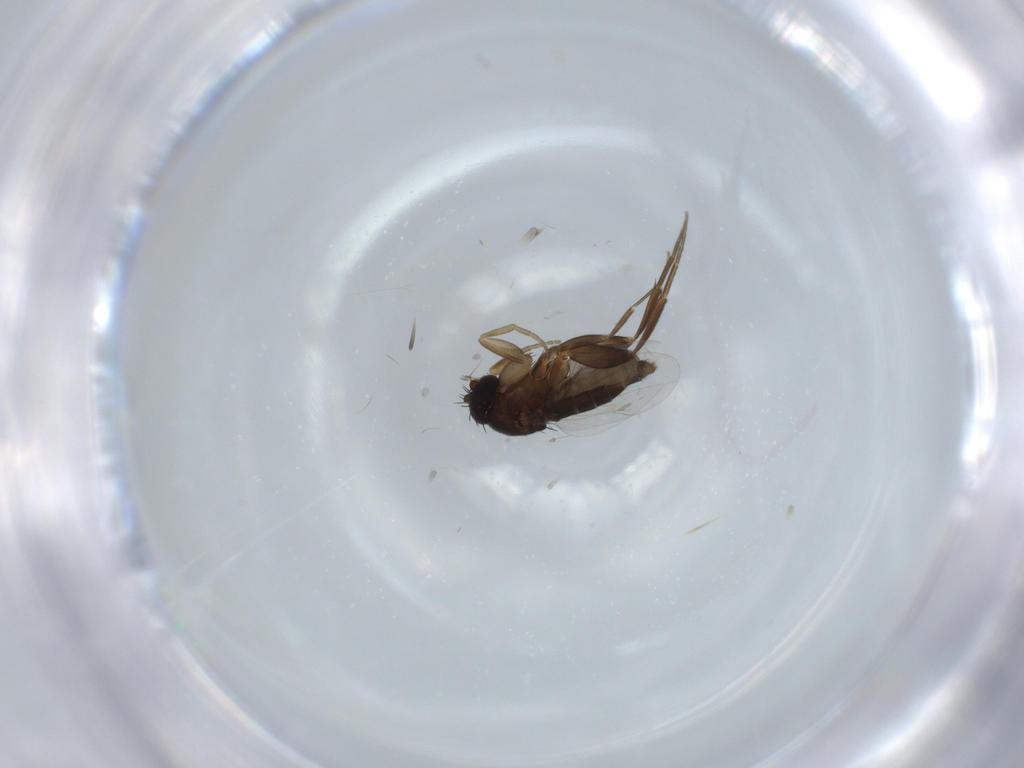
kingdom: Animalia
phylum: Arthropoda
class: Insecta
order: Diptera
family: Phoridae
